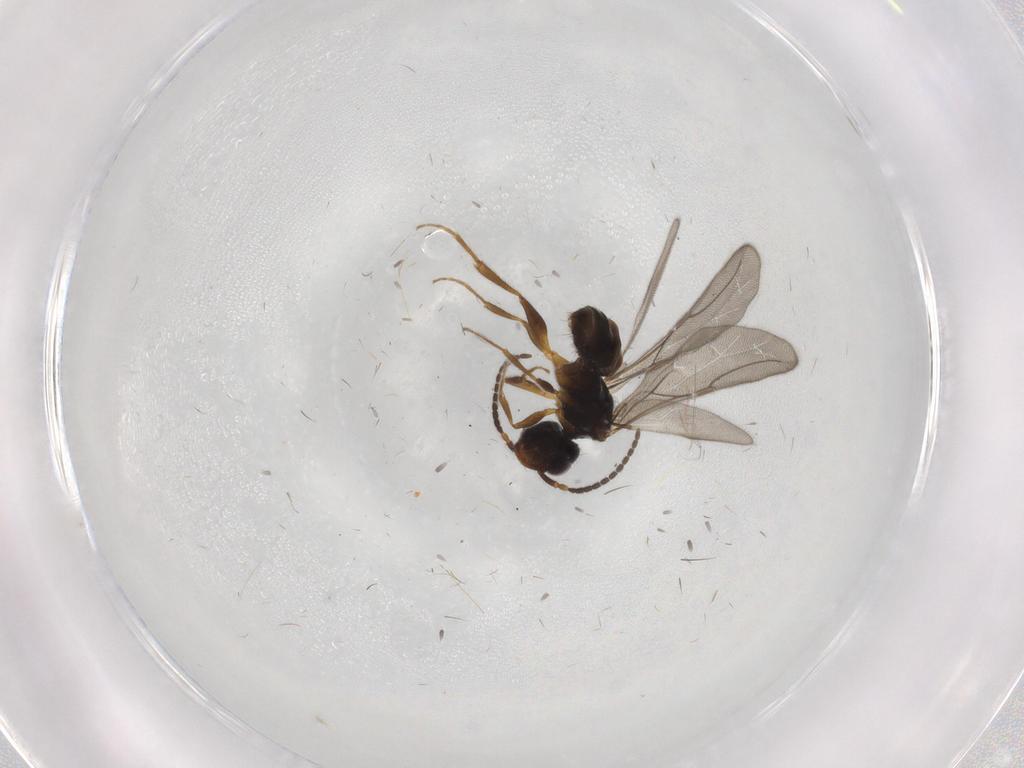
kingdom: Animalia
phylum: Arthropoda
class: Insecta
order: Hymenoptera
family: Bethylidae
